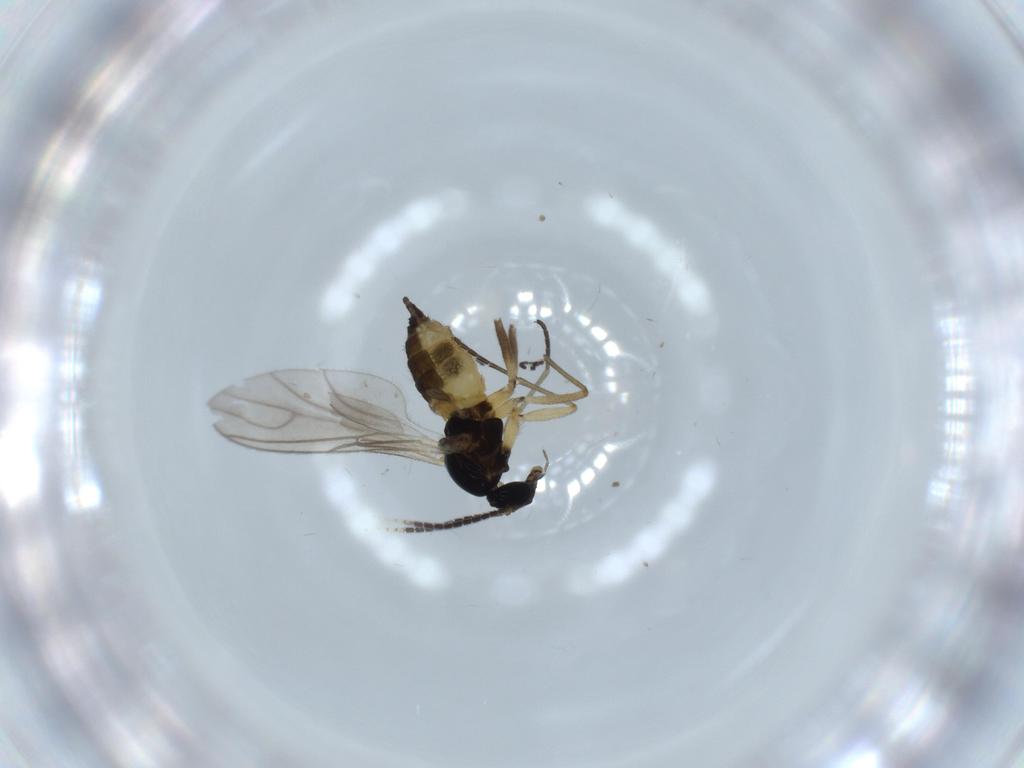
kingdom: Animalia
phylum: Arthropoda
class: Insecta
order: Diptera
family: Sciaridae
